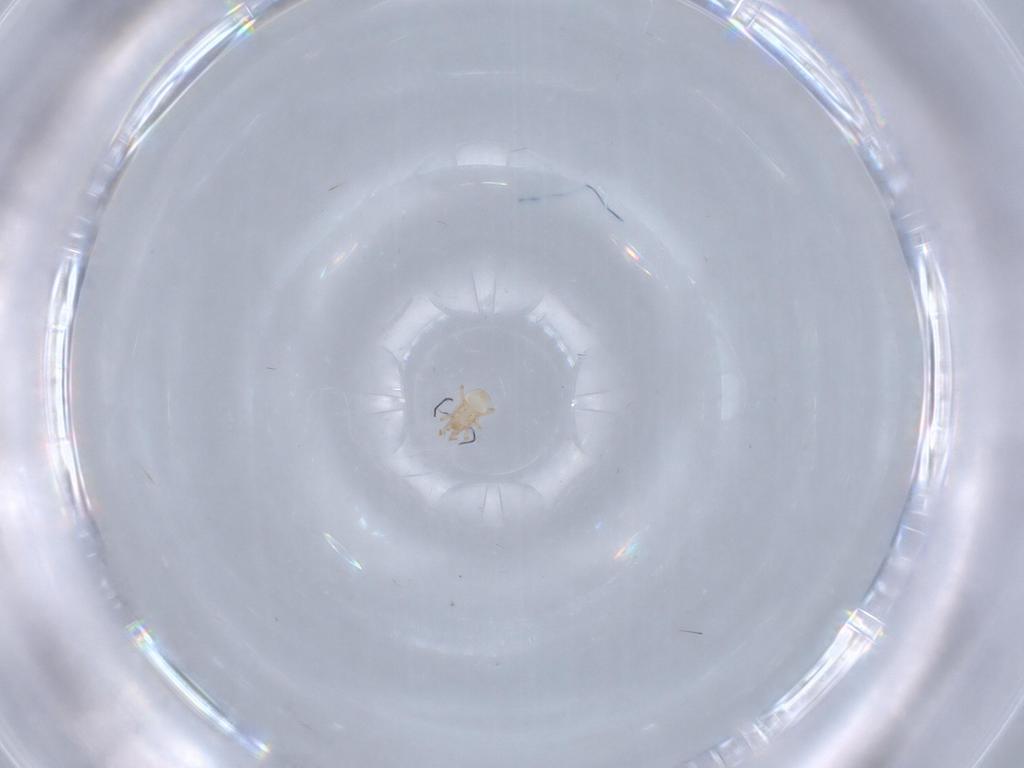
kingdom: Animalia
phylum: Arthropoda
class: Arachnida
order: Mesostigmata
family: Ascidae
